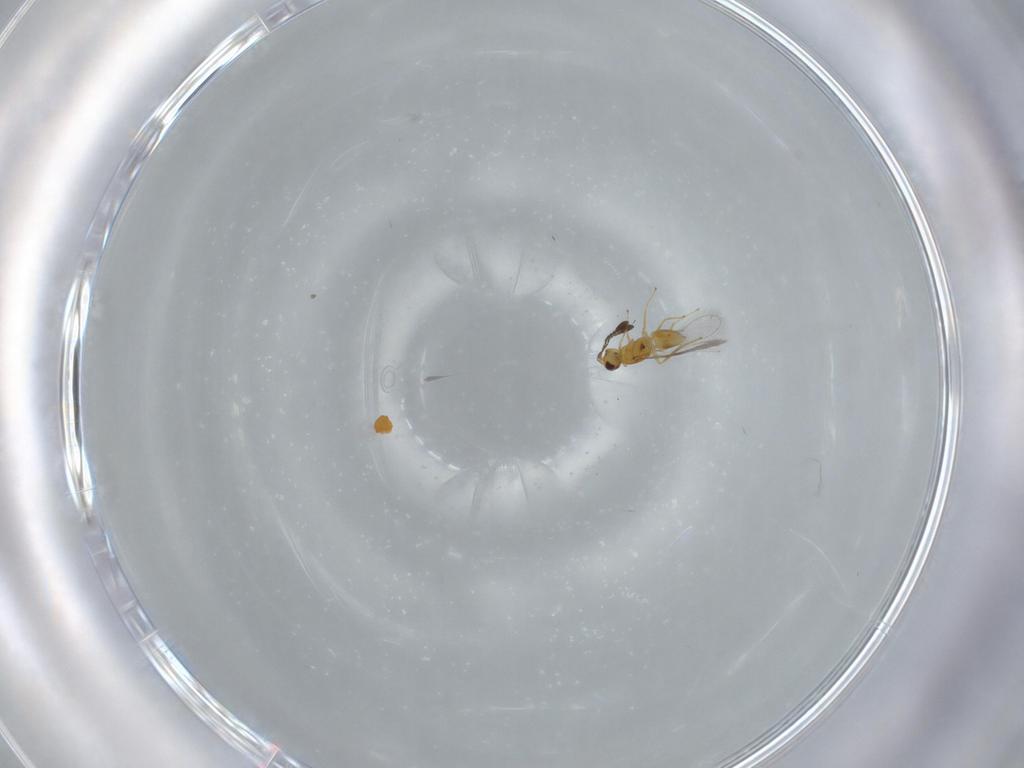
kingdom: Animalia
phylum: Arthropoda
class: Insecta
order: Hymenoptera
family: Trichogrammatidae
